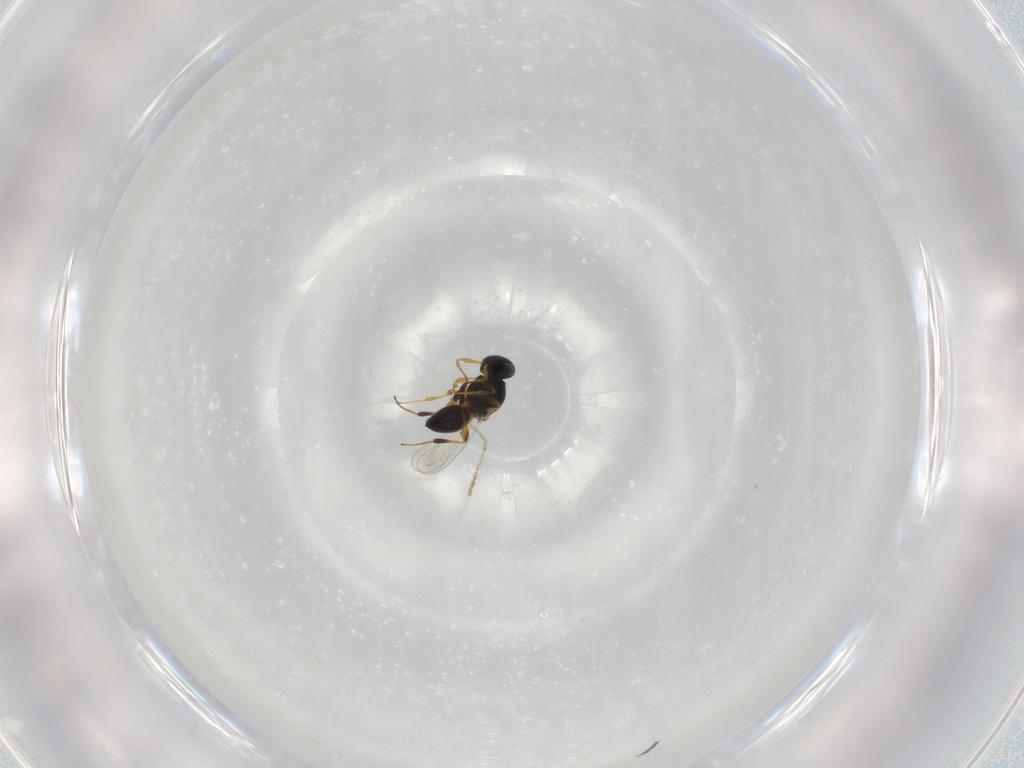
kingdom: Animalia
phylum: Arthropoda
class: Insecta
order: Hymenoptera
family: Platygastridae
